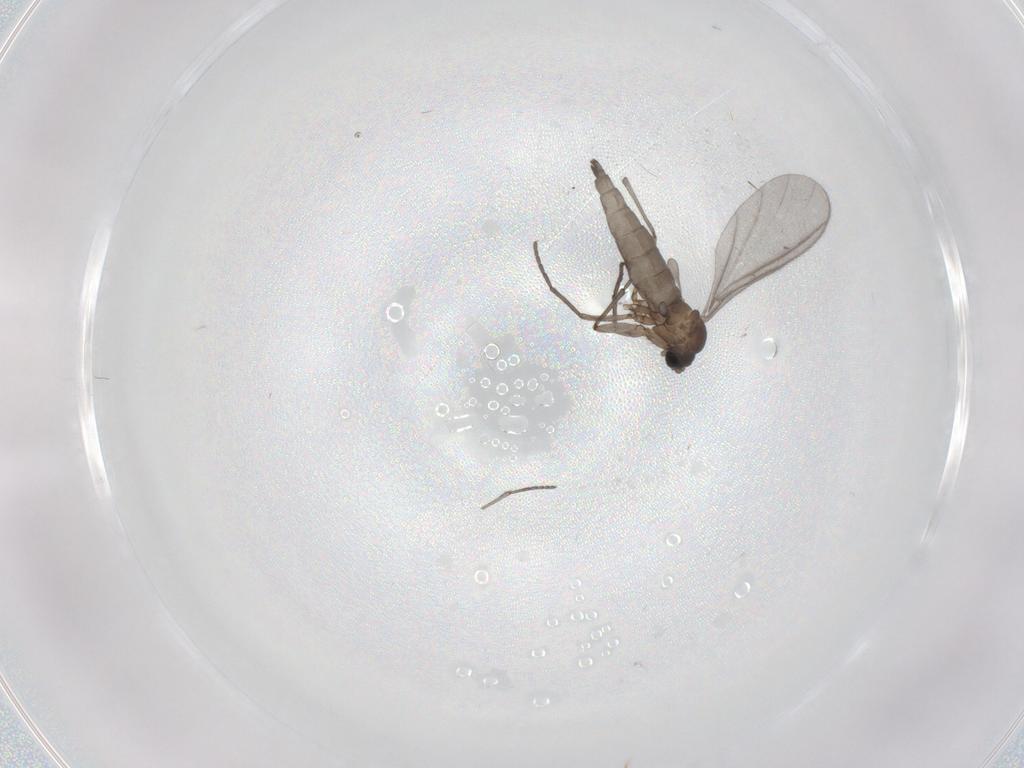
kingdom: Animalia
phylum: Arthropoda
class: Insecta
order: Diptera
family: Sciaridae
